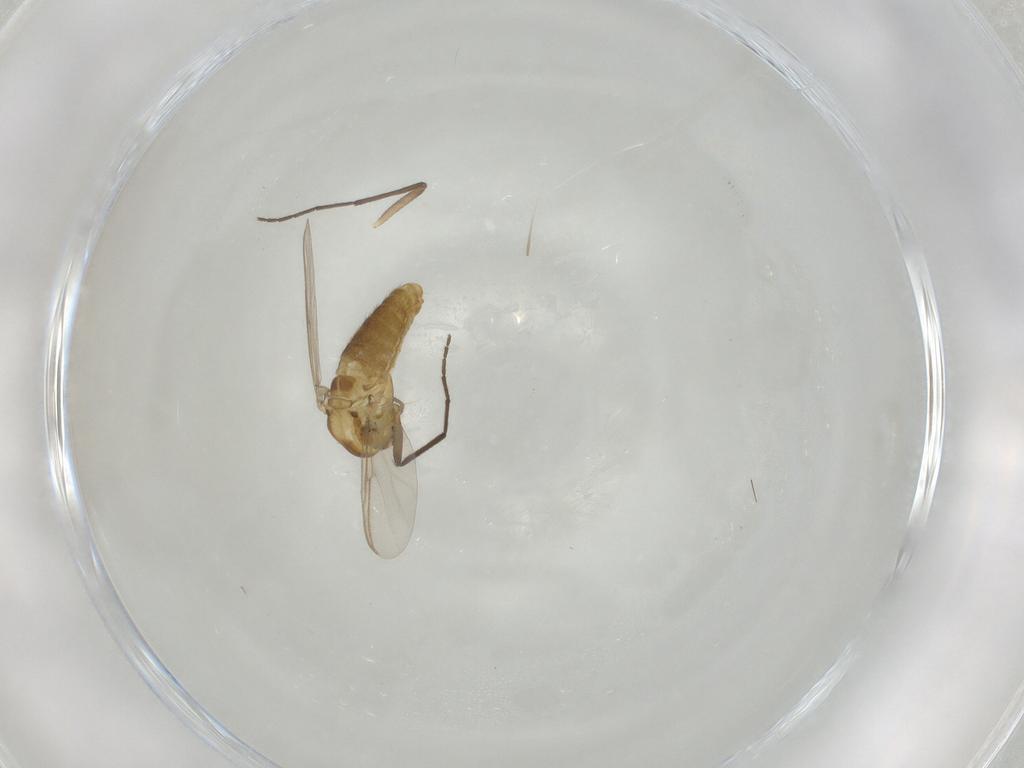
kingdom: Animalia
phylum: Arthropoda
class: Insecta
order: Diptera
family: Chironomidae
